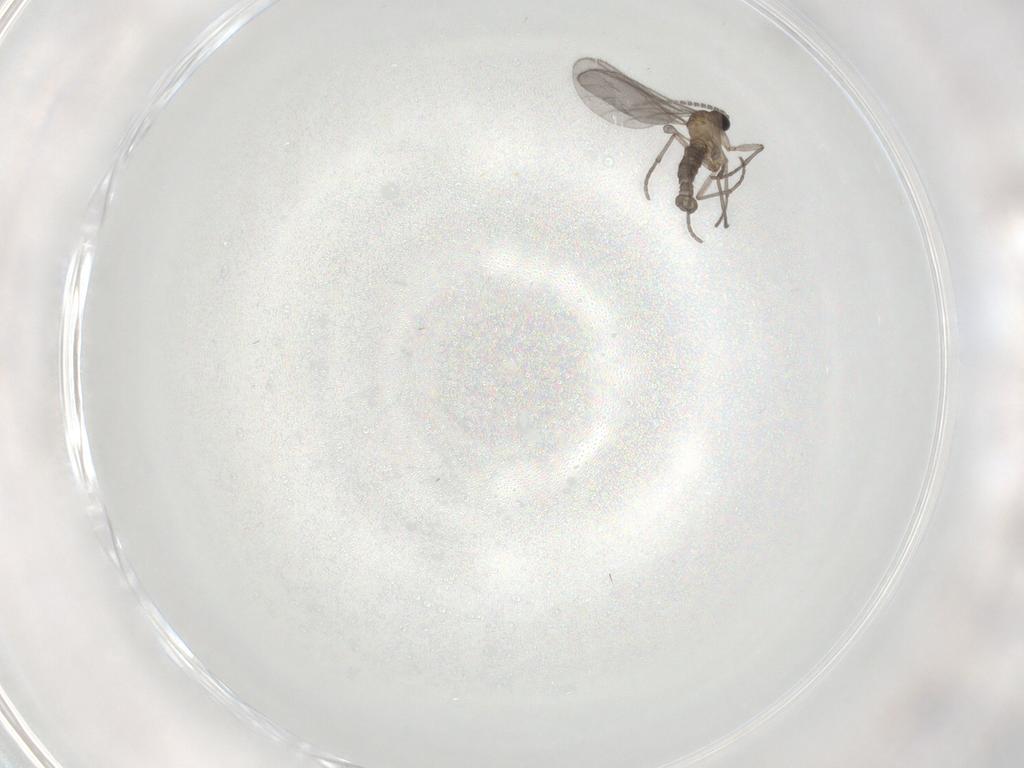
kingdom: Animalia
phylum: Arthropoda
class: Insecta
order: Diptera
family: Sciaridae
